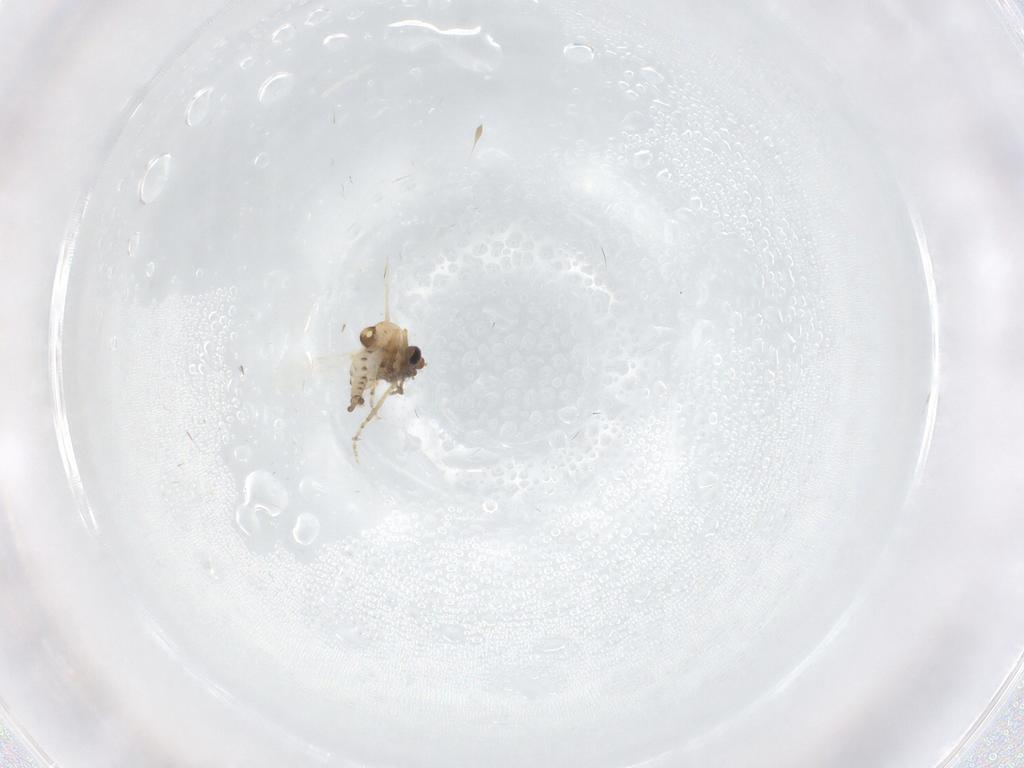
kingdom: Animalia
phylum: Arthropoda
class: Insecta
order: Diptera
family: Ceratopogonidae
